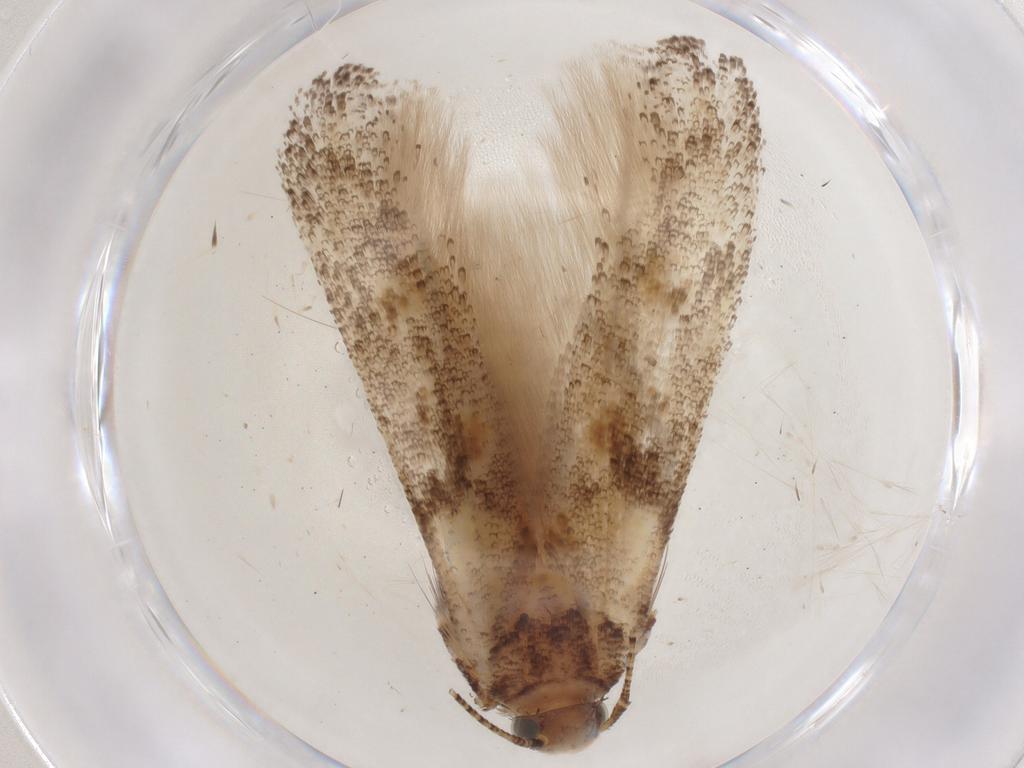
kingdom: Animalia
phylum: Arthropoda
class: Insecta
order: Lepidoptera
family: Gelechiidae
